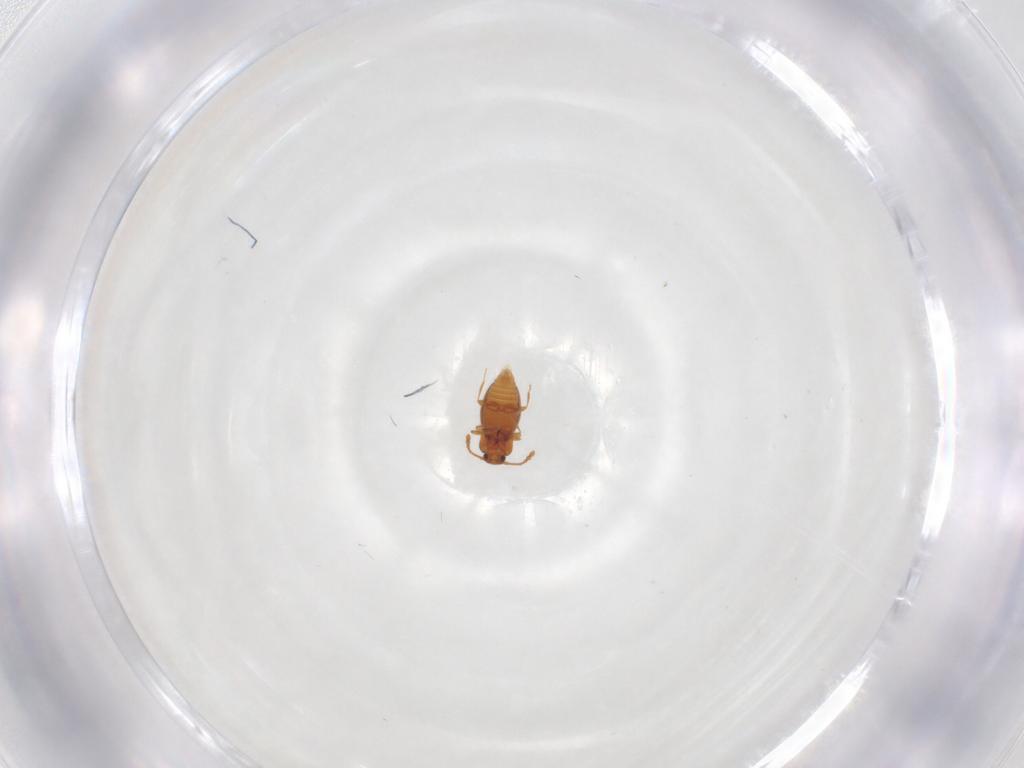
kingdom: Animalia
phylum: Arthropoda
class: Insecta
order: Coleoptera
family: Staphylinidae
